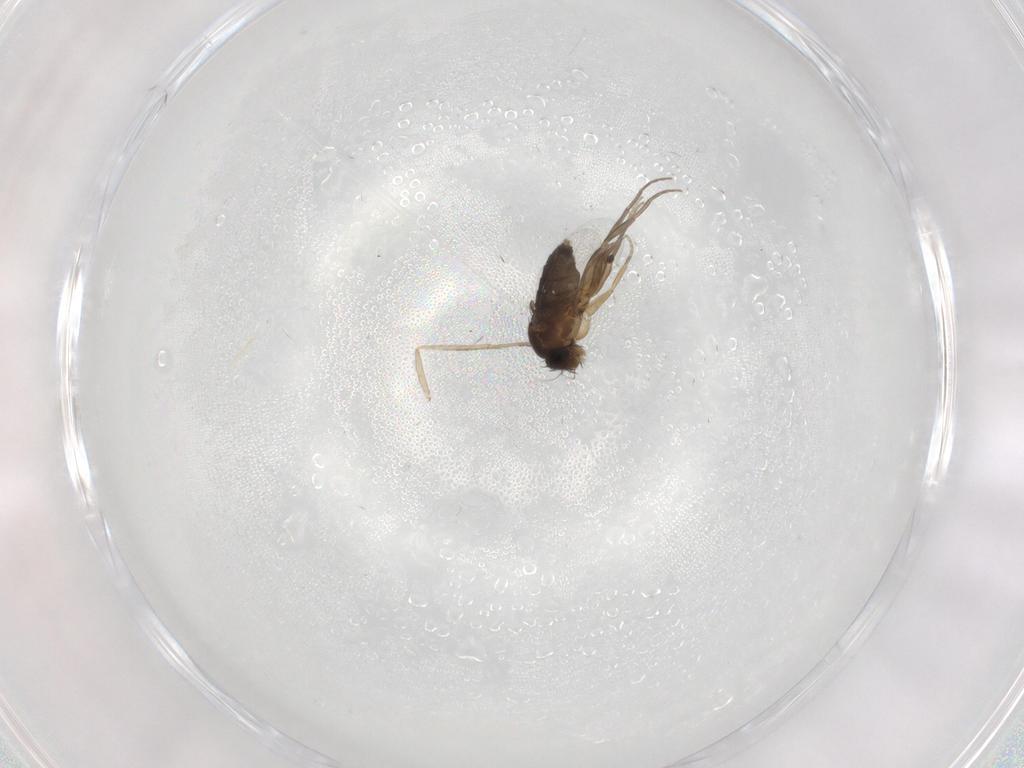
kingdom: Animalia
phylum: Arthropoda
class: Insecta
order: Diptera
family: Phoridae
